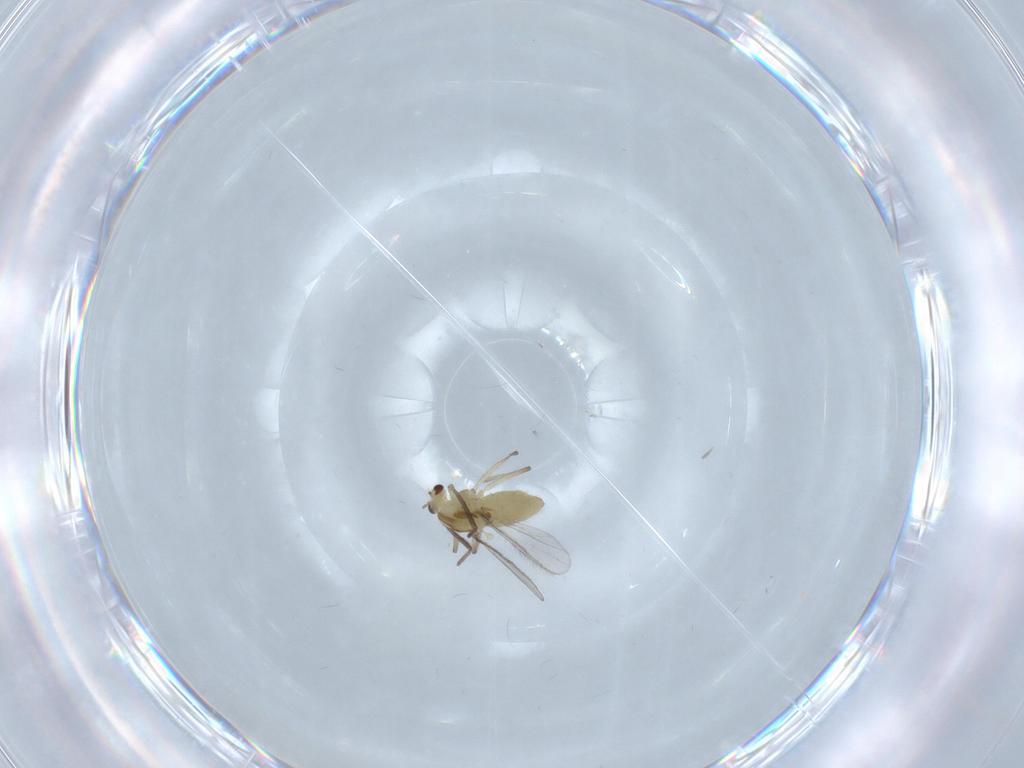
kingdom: Animalia
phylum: Arthropoda
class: Insecta
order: Diptera
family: Chironomidae
